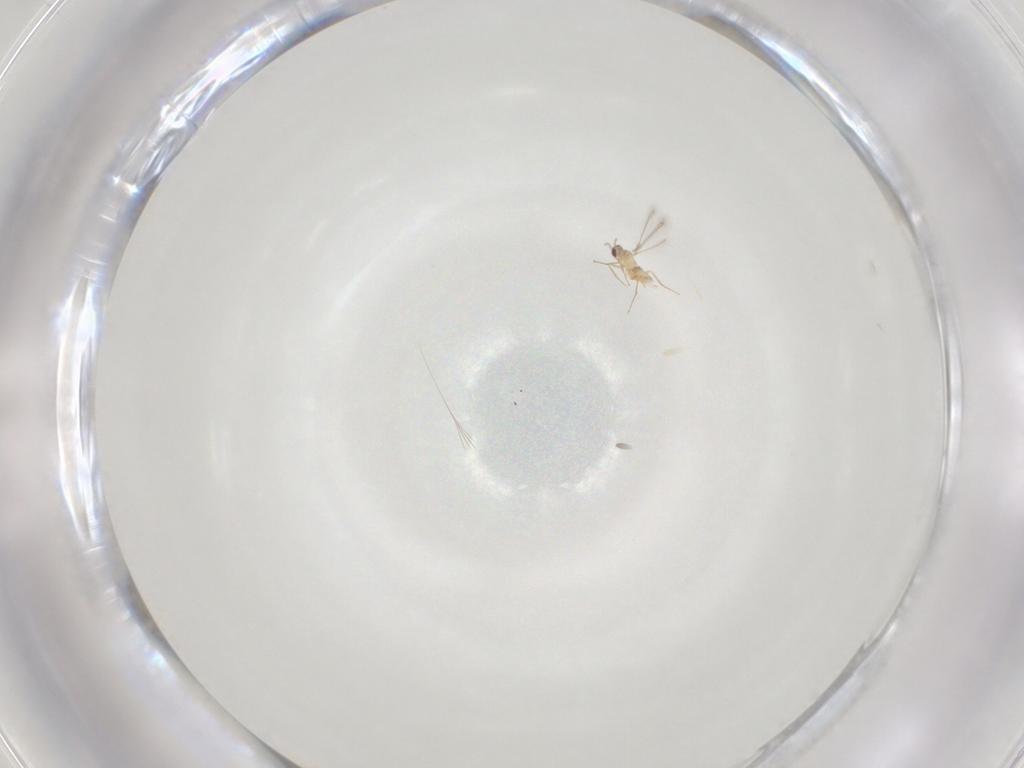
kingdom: Animalia
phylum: Arthropoda
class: Insecta
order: Hymenoptera
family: Mymaridae
